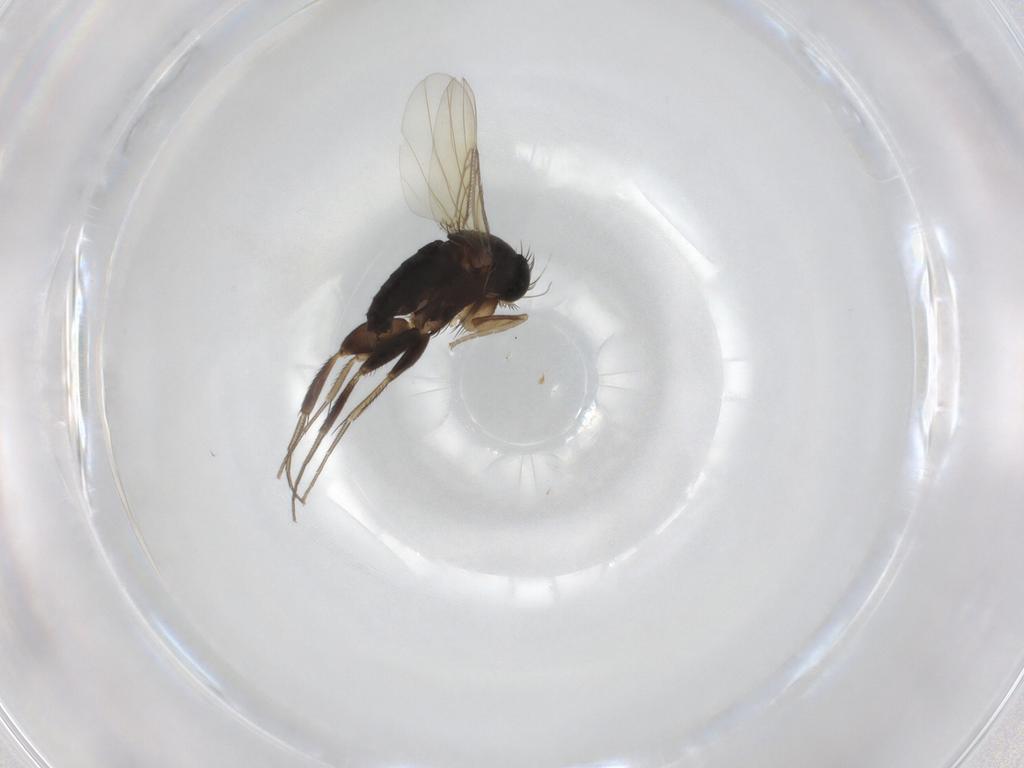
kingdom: Animalia
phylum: Arthropoda
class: Insecta
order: Diptera
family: Phoridae
